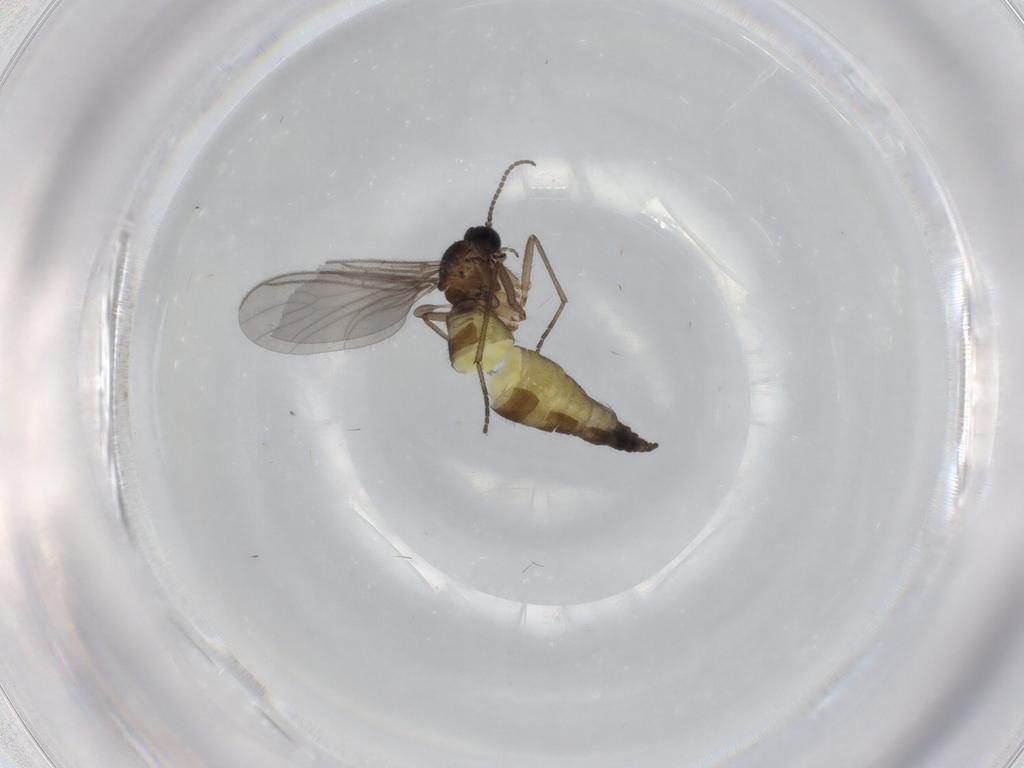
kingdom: Animalia
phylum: Arthropoda
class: Insecta
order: Diptera
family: Sciaridae
